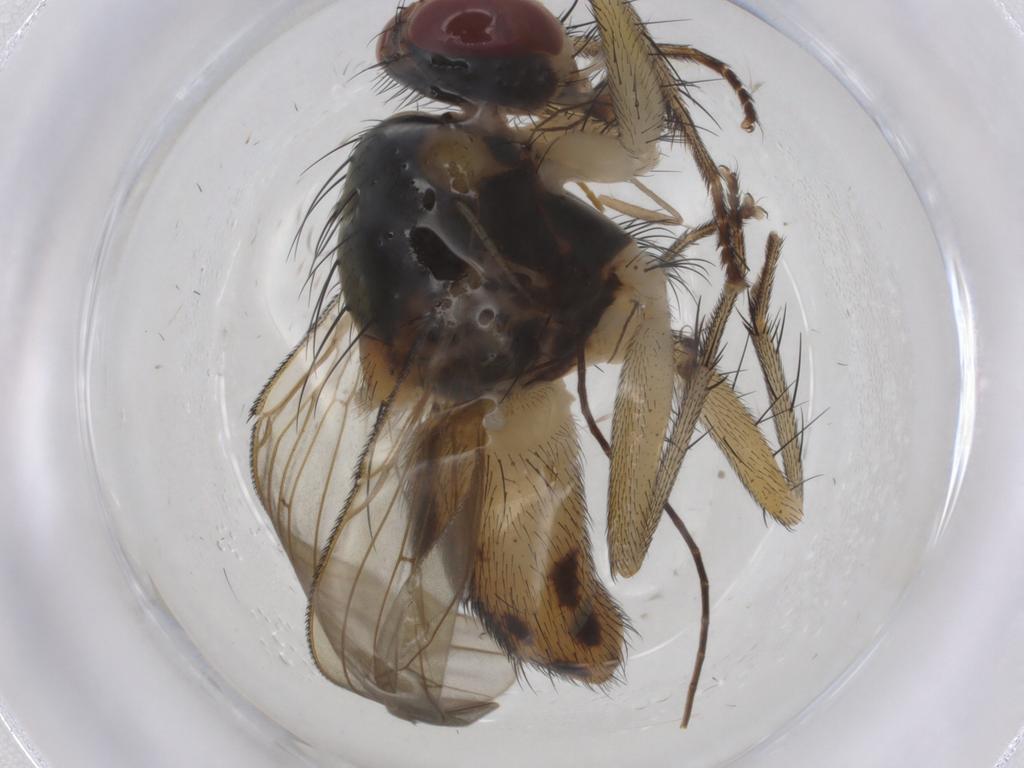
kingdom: Animalia
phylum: Arthropoda
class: Insecta
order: Diptera
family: Muscidae
